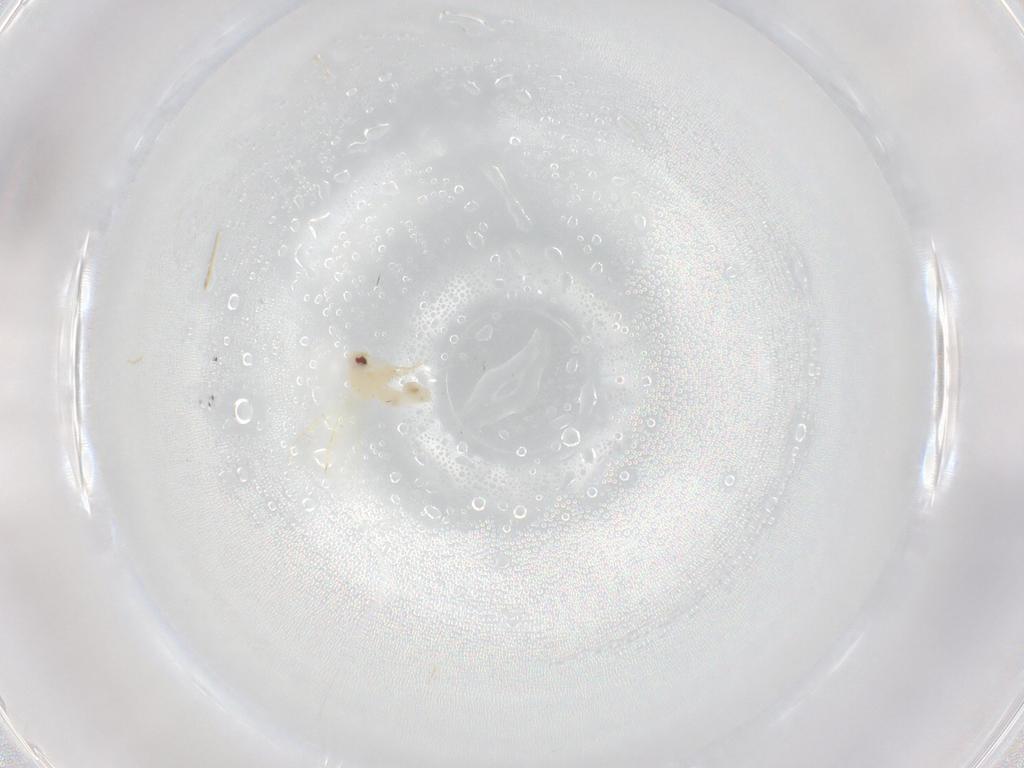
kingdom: Animalia
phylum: Arthropoda
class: Insecta
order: Hemiptera
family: Aleyrodidae
